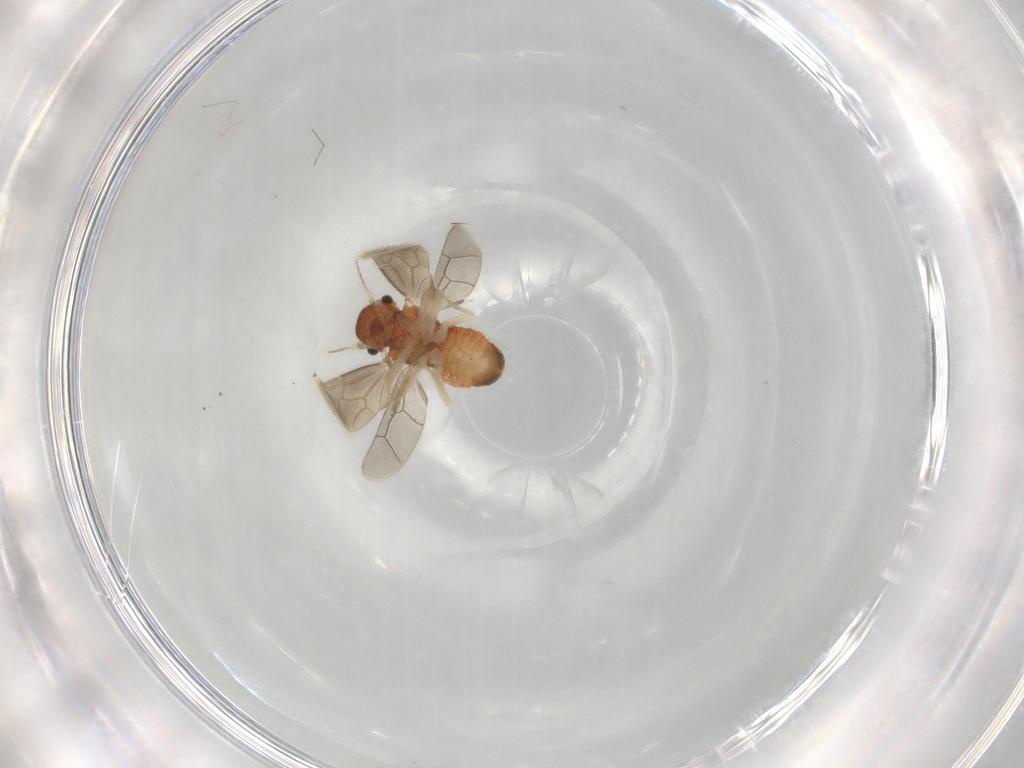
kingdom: Animalia
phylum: Arthropoda
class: Insecta
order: Psocodea
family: Archipsocidae
